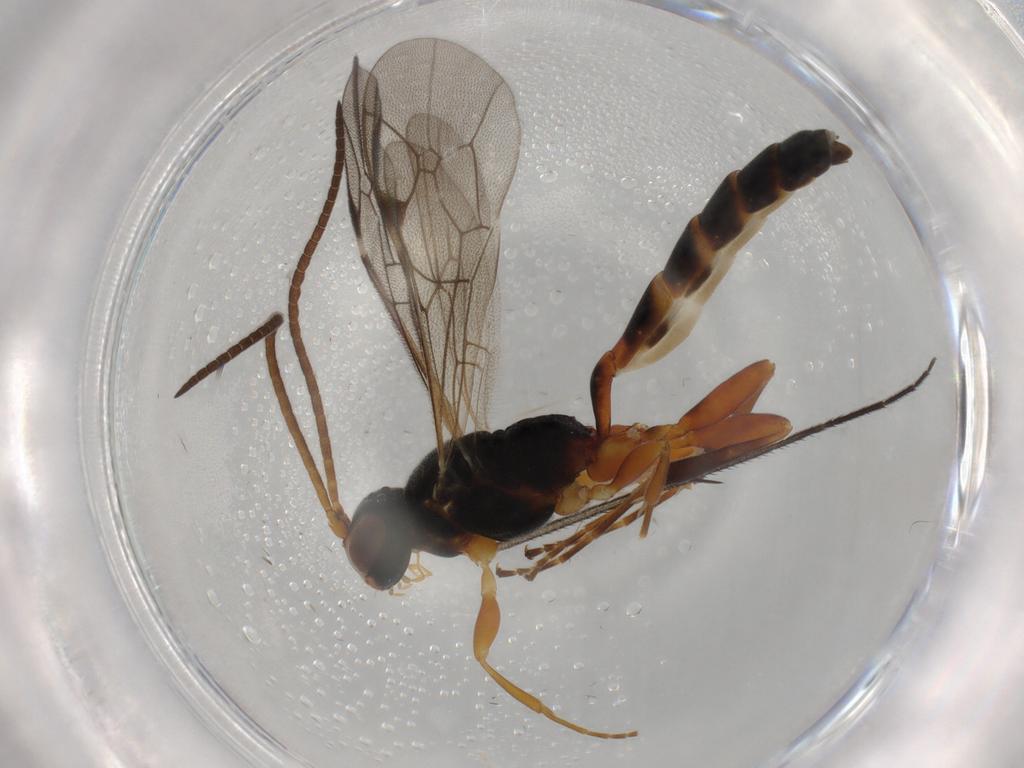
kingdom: Animalia
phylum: Arthropoda
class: Insecta
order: Hymenoptera
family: Ichneumonidae
